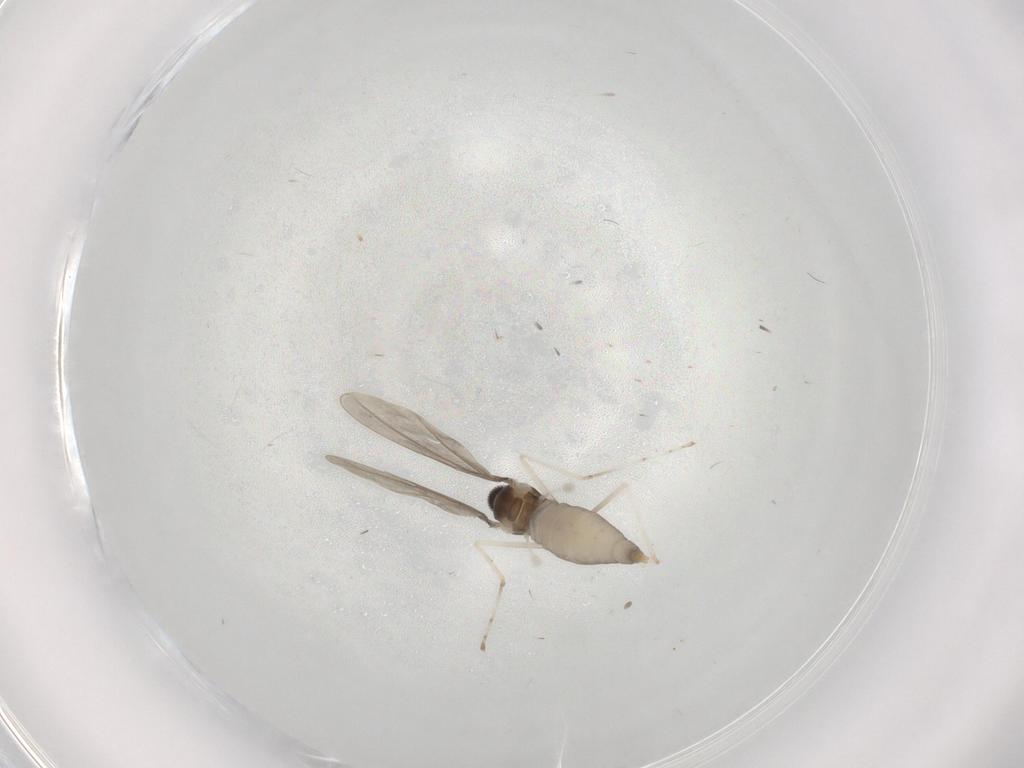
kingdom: Animalia
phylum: Arthropoda
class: Insecta
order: Diptera
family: Cecidomyiidae
